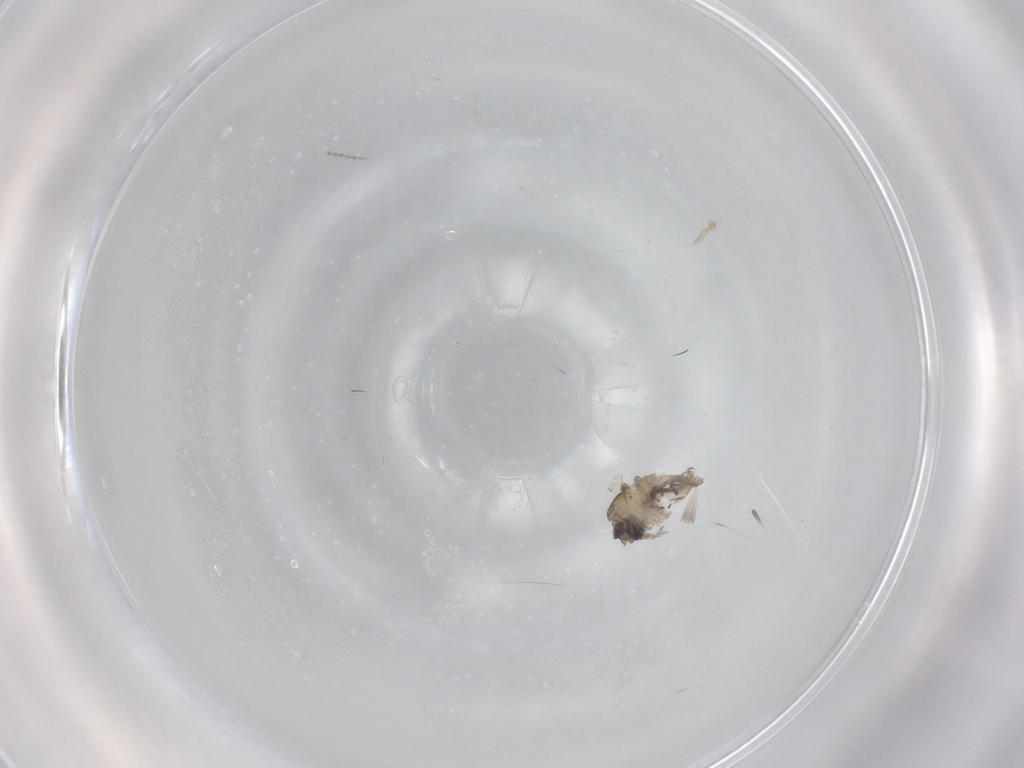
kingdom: Animalia
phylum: Arthropoda
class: Insecta
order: Diptera
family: Psychodidae
